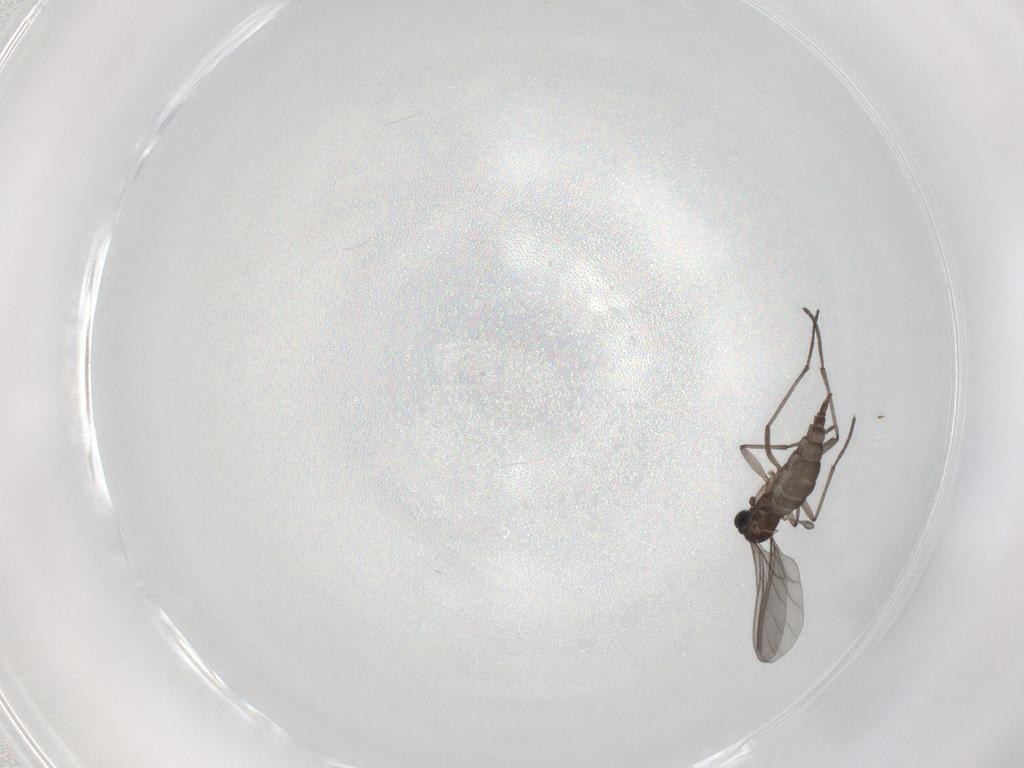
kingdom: Animalia
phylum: Arthropoda
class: Insecta
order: Diptera
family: Sciaridae
